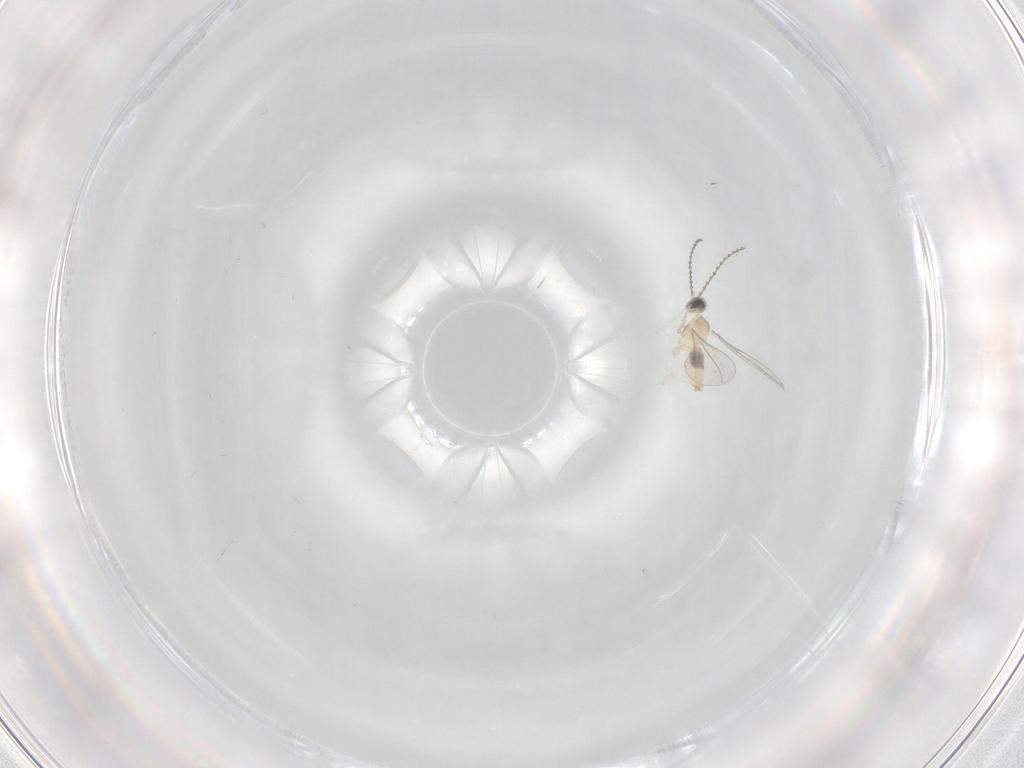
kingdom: Animalia
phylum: Arthropoda
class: Insecta
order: Diptera
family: Cecidomyiidae
